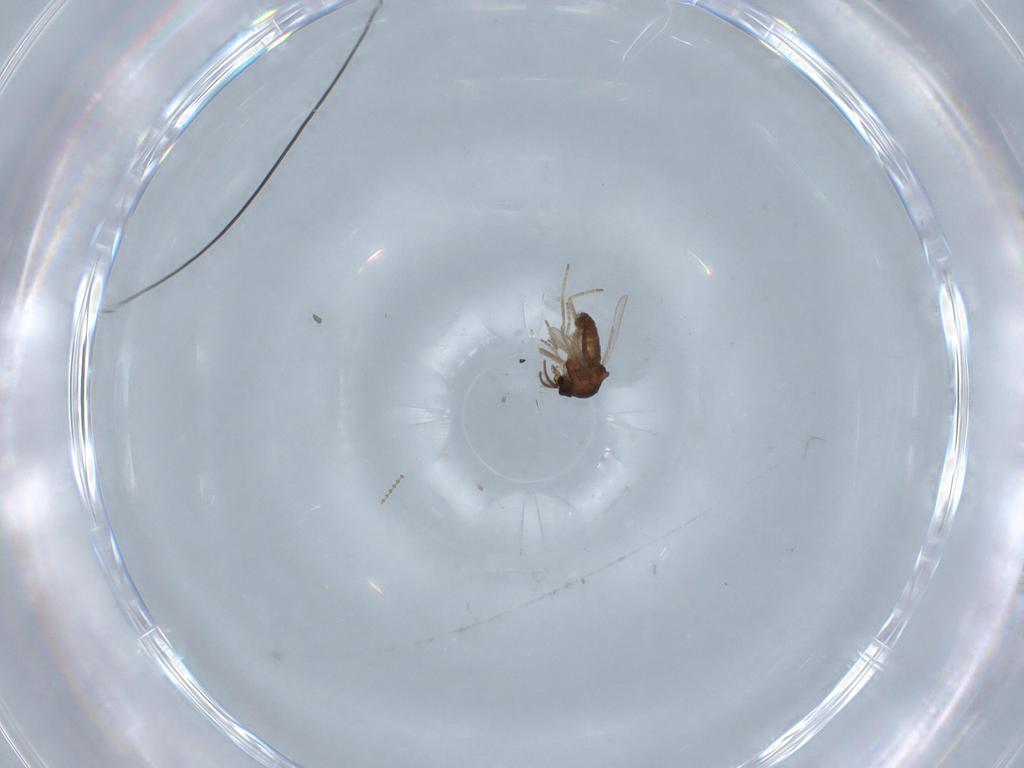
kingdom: Animalia
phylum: Arthropoda
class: Insecta
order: Diptera
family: Ceratopogonidae
